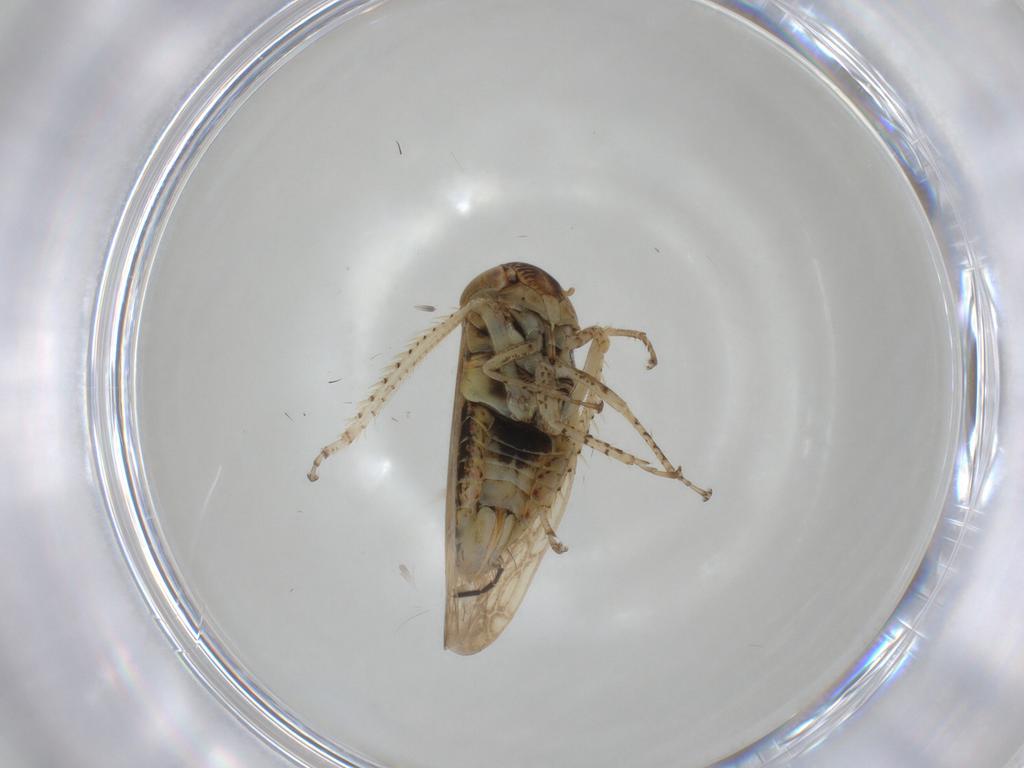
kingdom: Animalia
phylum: Arthropoda
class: Insecta
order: Hemiptera
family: Cicadellidae
